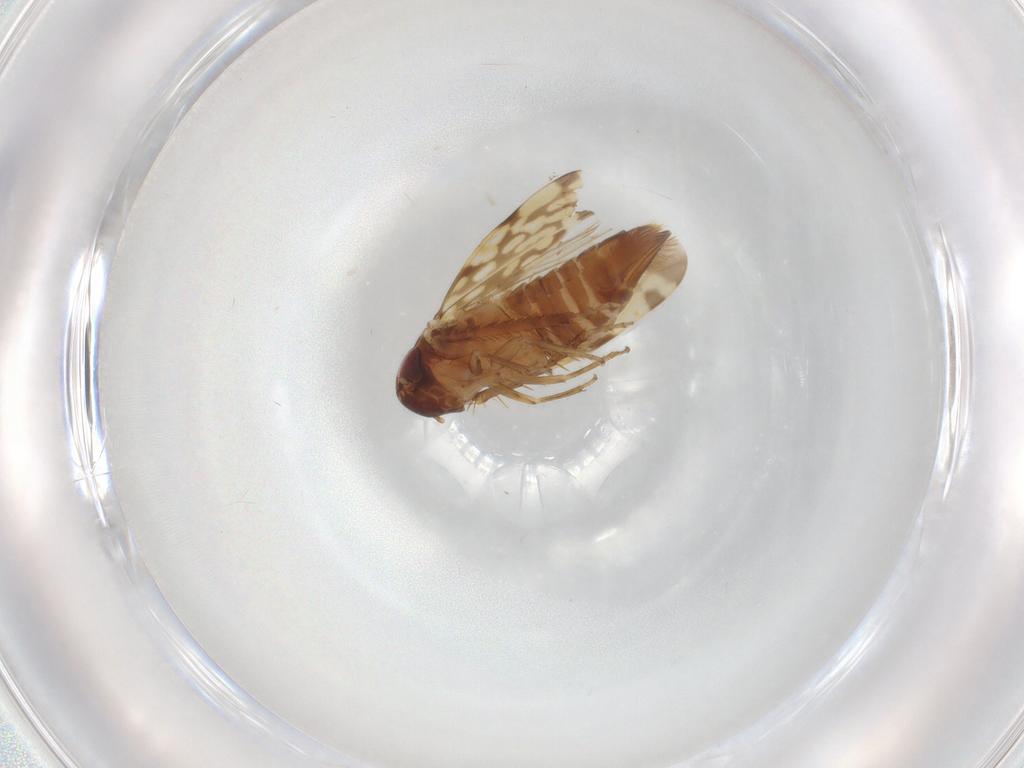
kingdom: Animalia
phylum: Arthropoda
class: Insecta
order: Hemiptera
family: Cicadellidae
